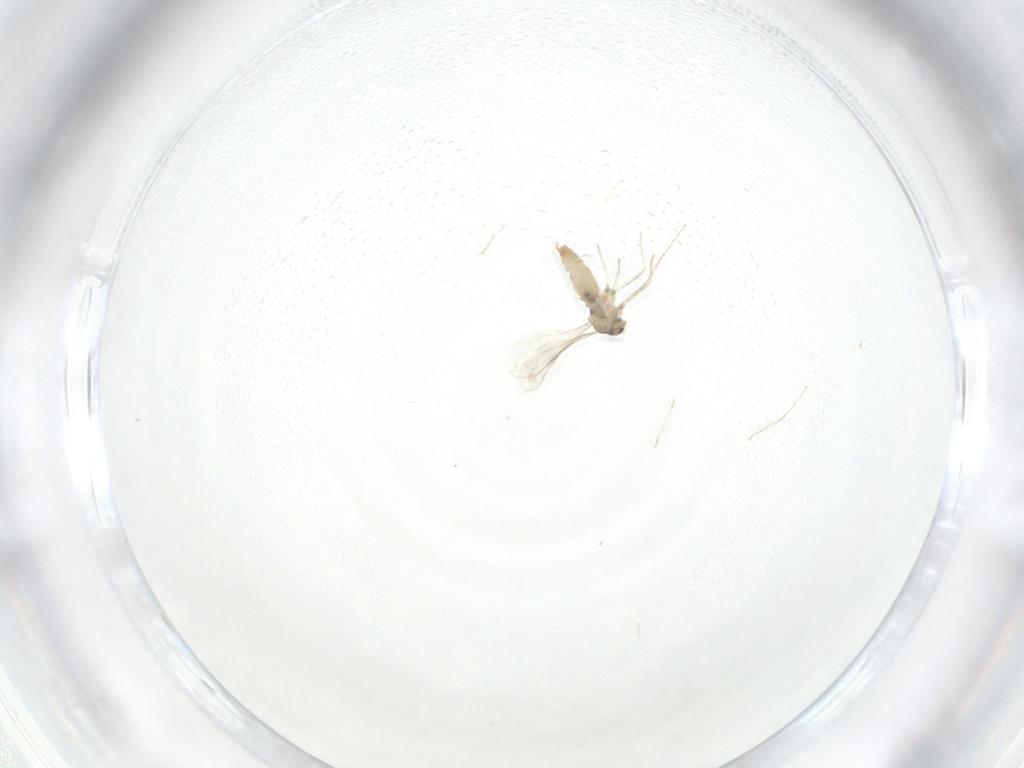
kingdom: Animalia
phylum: Arthropoda
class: Insecta
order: Diptera
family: Cecidomyiidae
